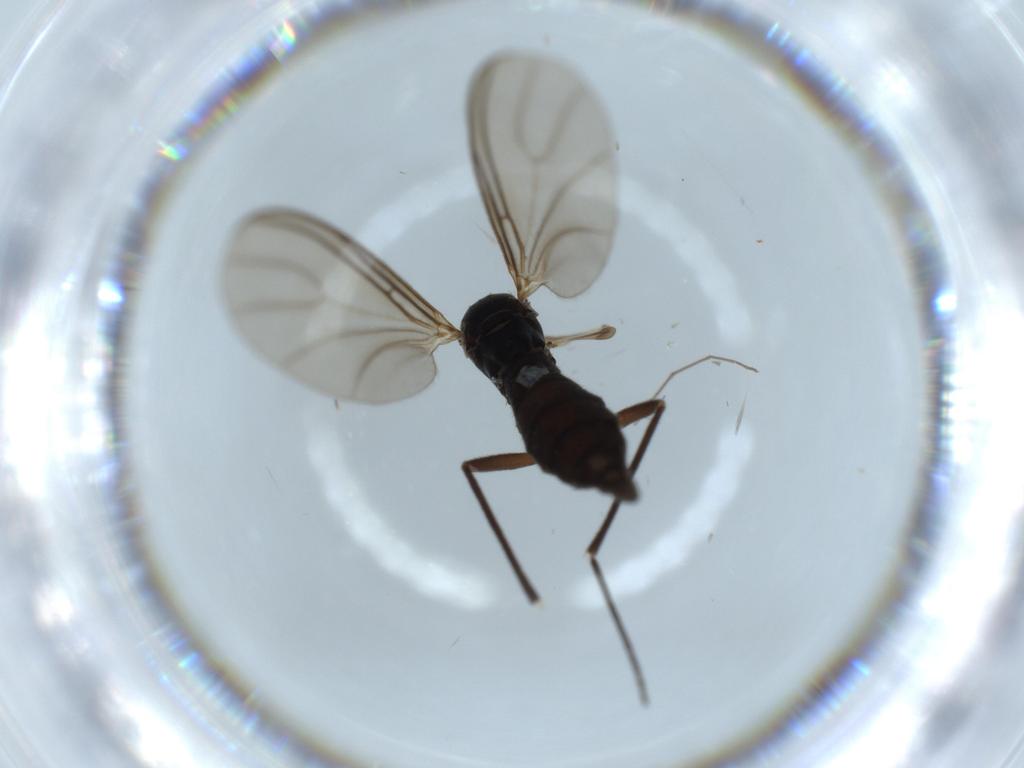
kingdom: Animalia
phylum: Arthropoda
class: Insecta
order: Diptera
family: Sciaridae
